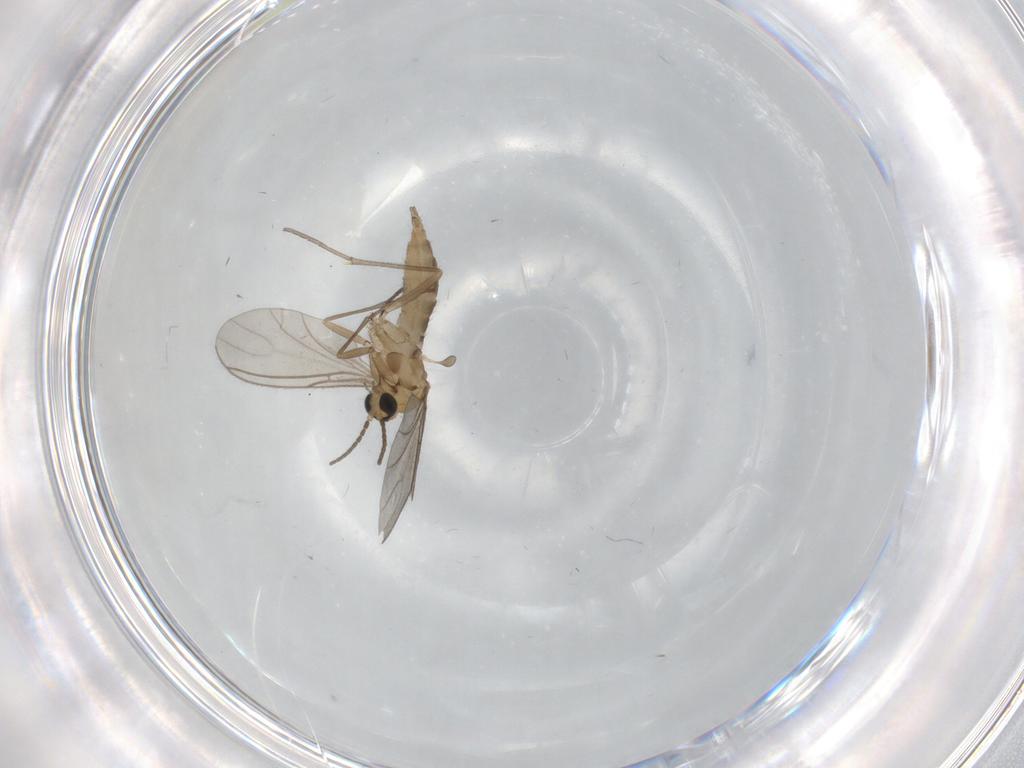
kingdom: Animalia
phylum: Arthropoda
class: Insecta
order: Diptera
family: Sciaridae
